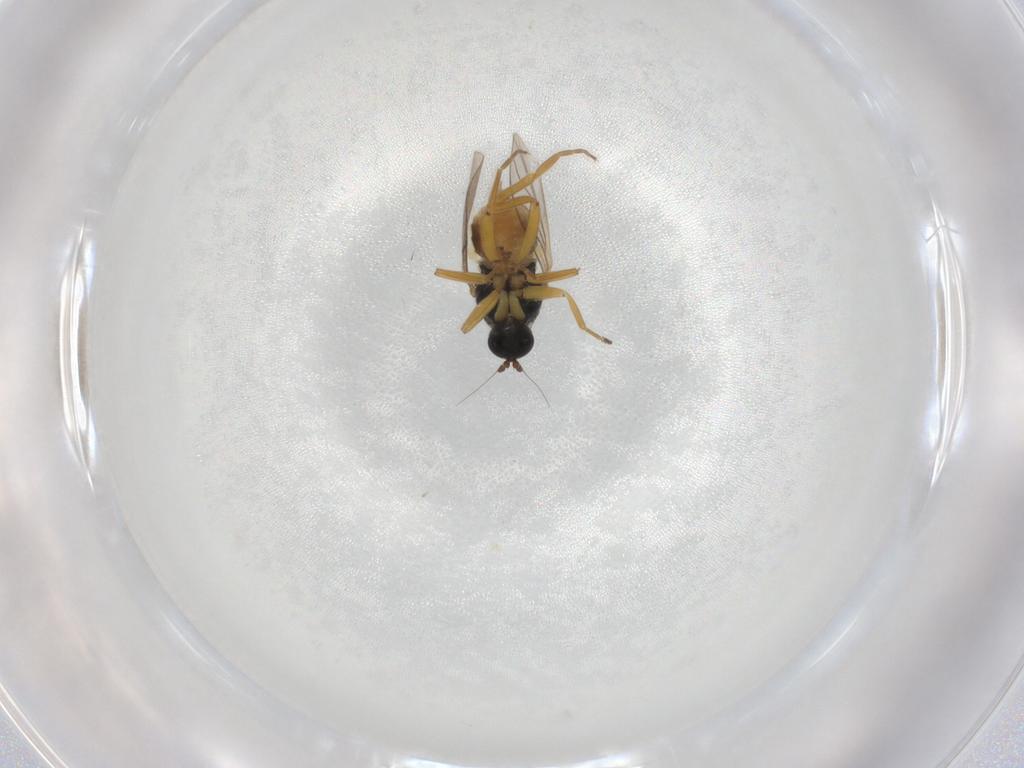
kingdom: Animalia
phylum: Arthropoda
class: Insecta
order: Diptera
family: Hybotidae
